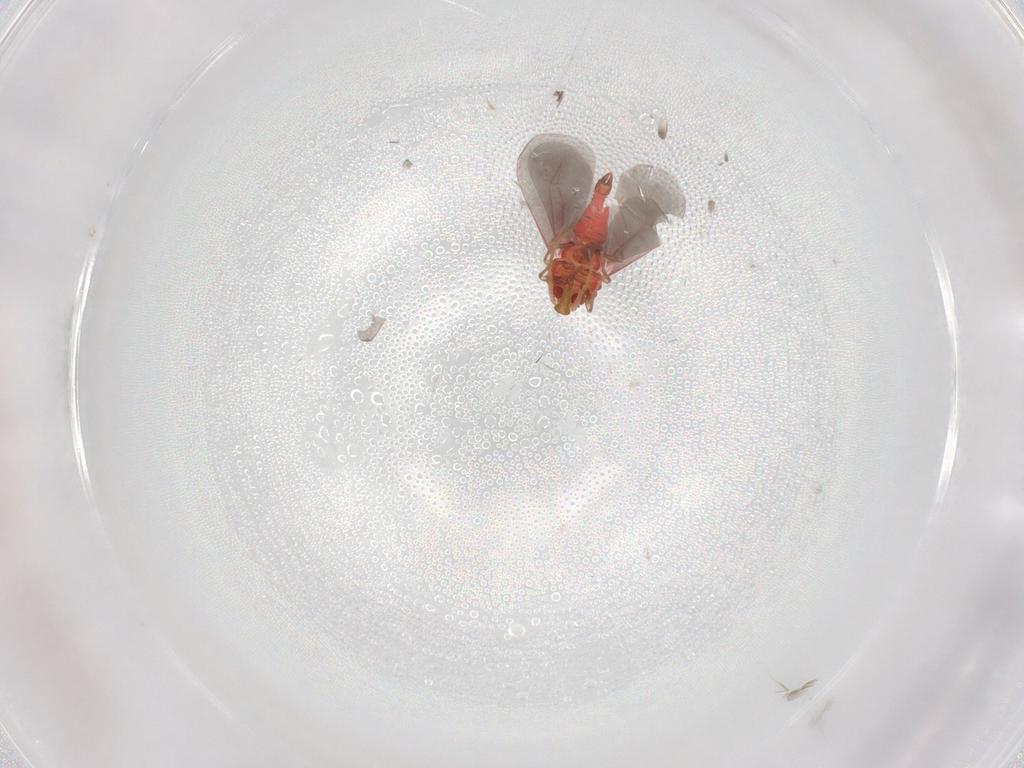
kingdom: Animalia
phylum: Arthropoda
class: Insecta
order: Hemiptera
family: Aleyrodidae
